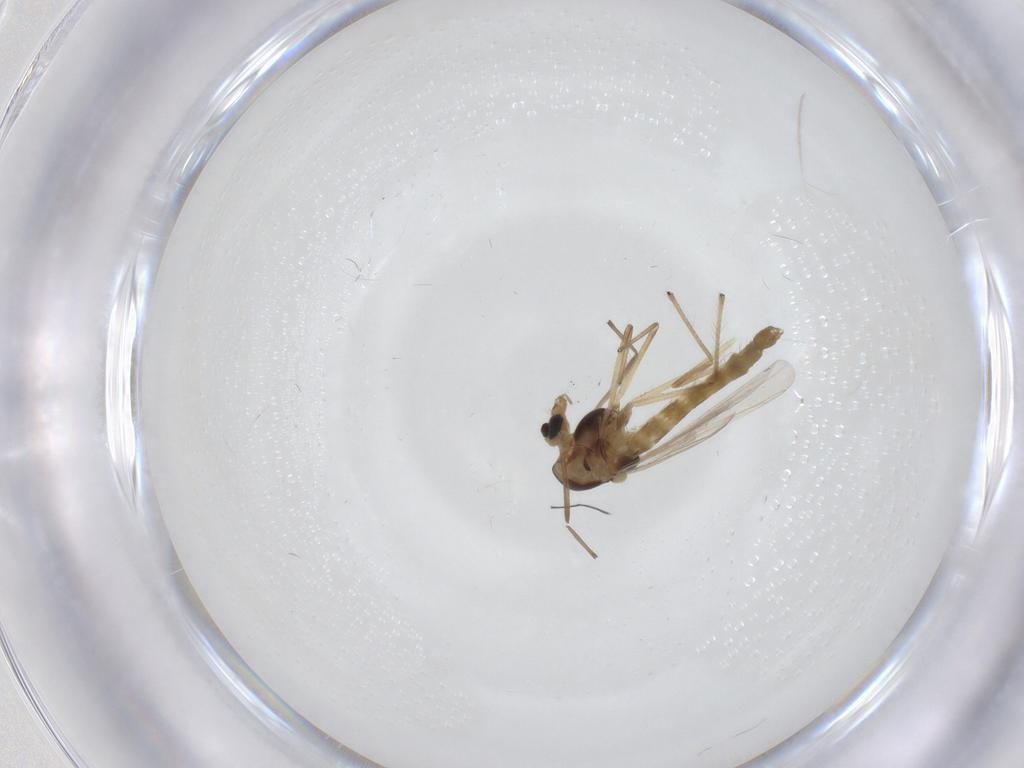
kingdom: Animalia
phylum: Arthropoda
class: Insecta
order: Diptera
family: Chironomidae
